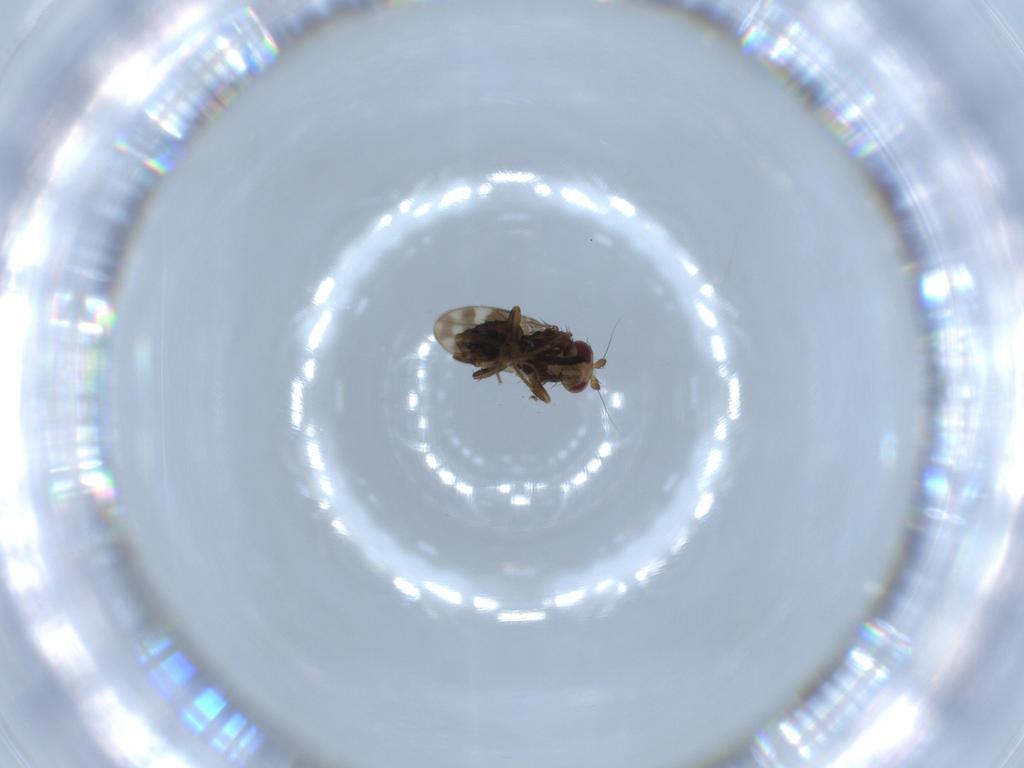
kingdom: Animalia
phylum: Arthropoda
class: Insecta
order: Diptera
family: Sphaeroceridae
